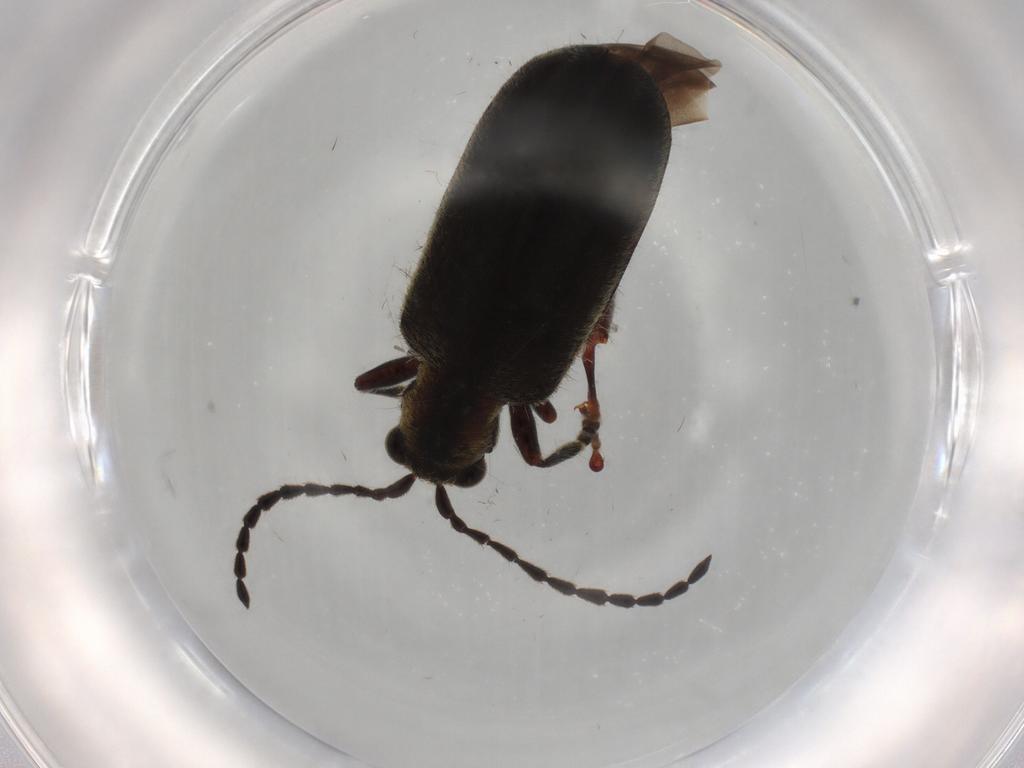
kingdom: Animalia
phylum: Arthropoda
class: Insecta
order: Coleoptera
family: Chrysomelidae
